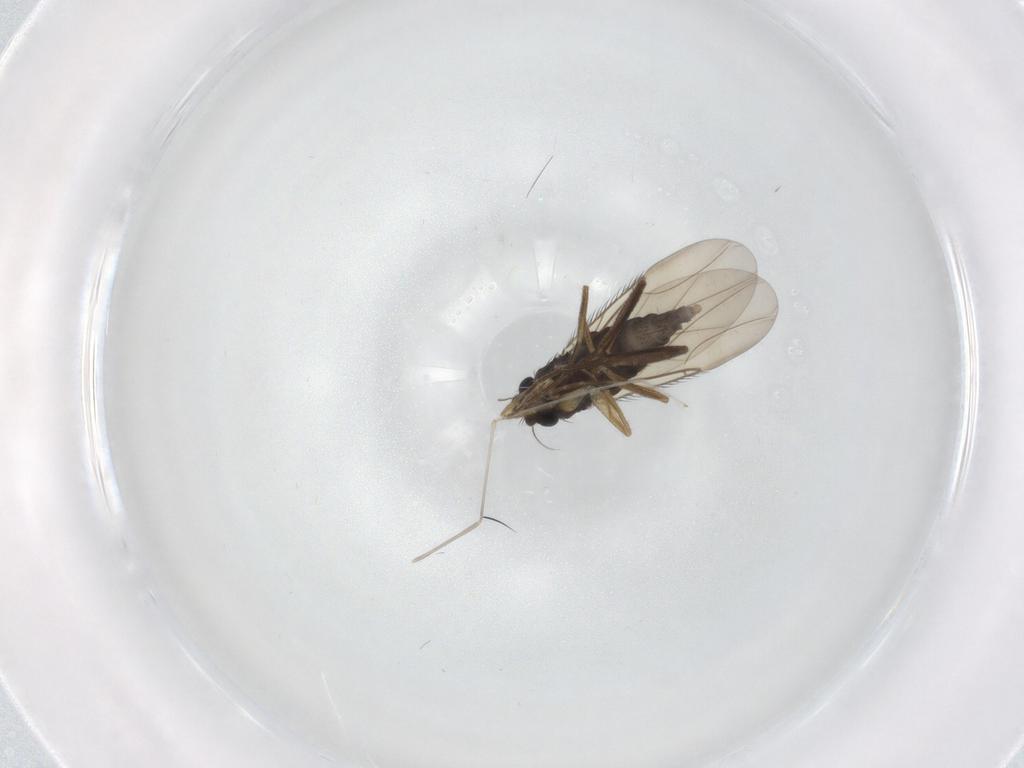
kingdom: Animalia
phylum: Arthropoda
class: Insecta
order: Diptera
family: Phoridae
